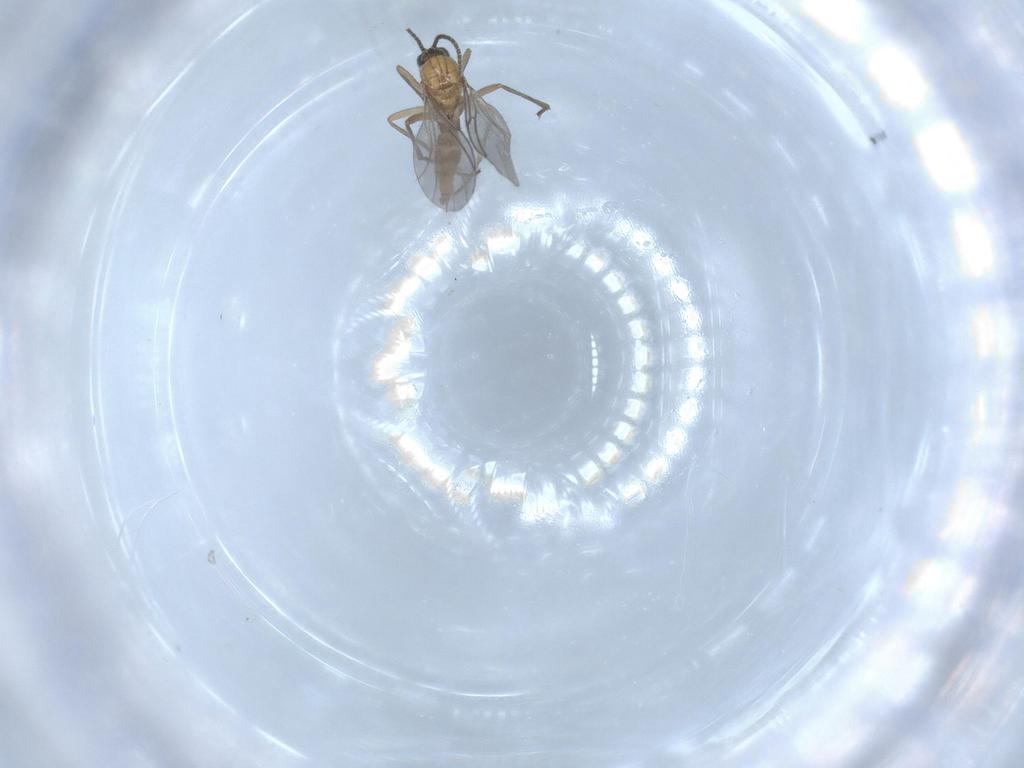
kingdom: Animalia
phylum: Arthropoda
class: Insecta
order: Diptera
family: Sciaridae
